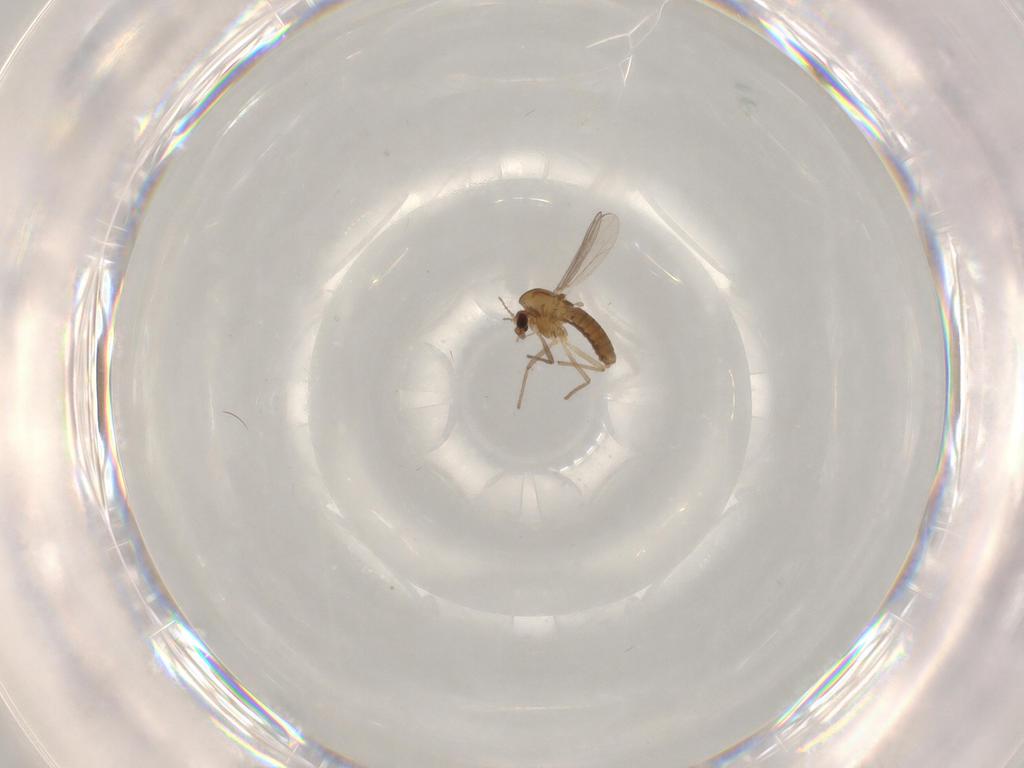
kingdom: Animalia
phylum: Arthropoda
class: Insecta
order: Diptera
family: Chironomidae
